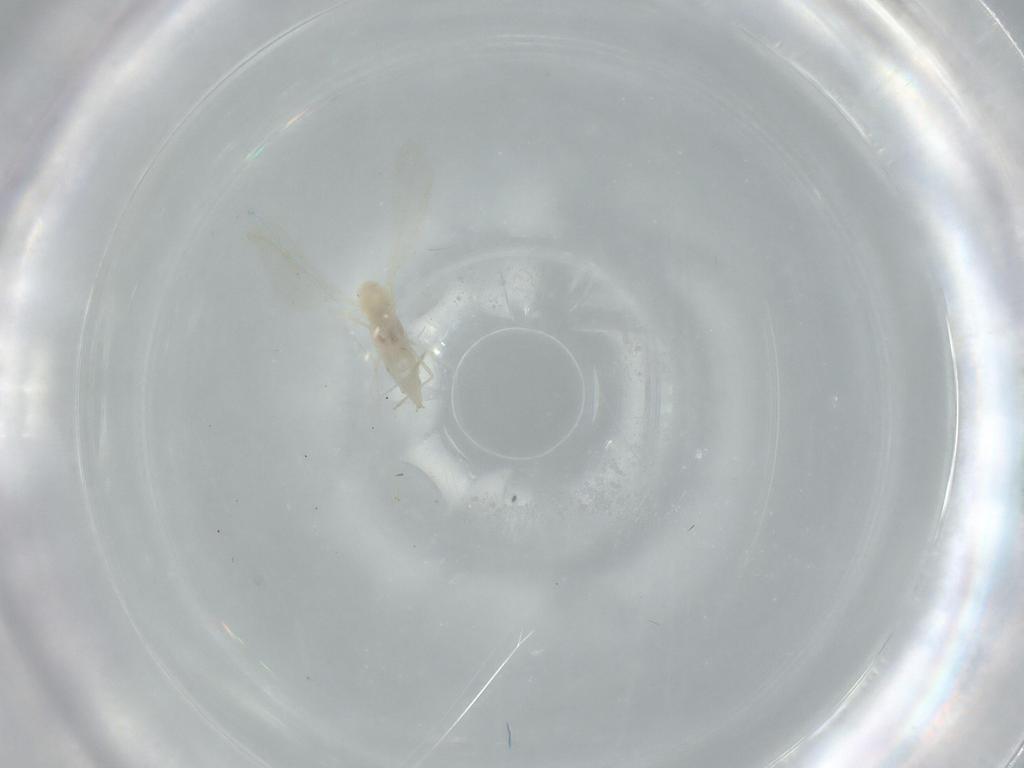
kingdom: Animalia
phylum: Arthropoda
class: Insecta
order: Diptera
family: Cecidomyiidae
